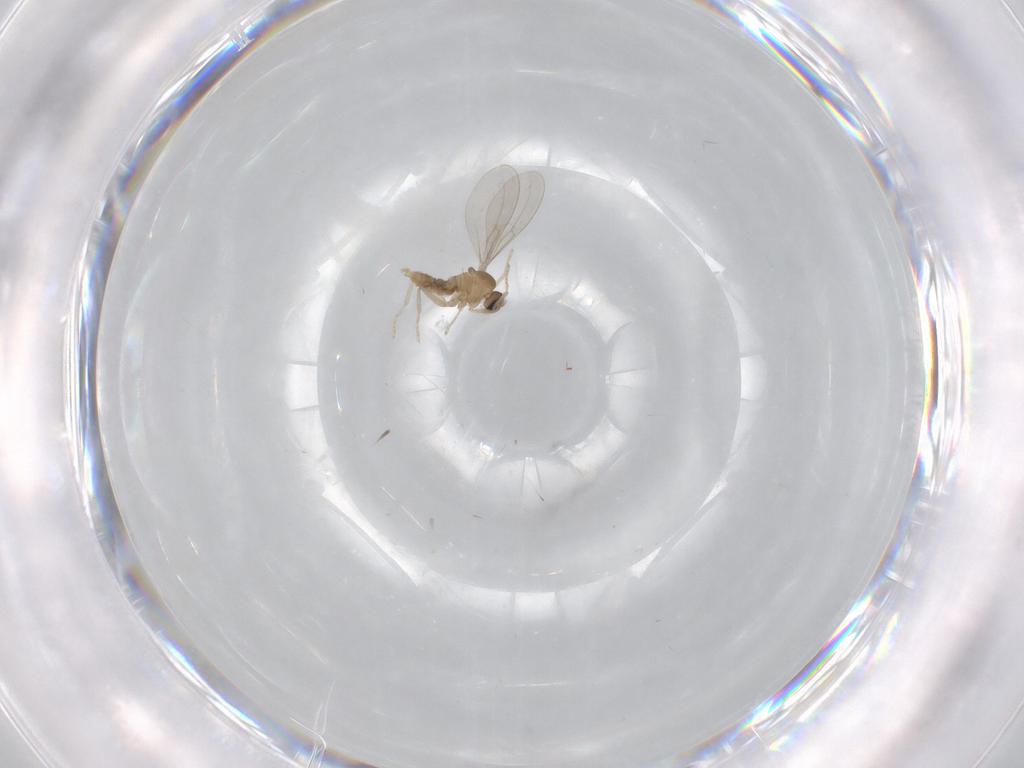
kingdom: Animalia
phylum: Arthropoda
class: Insecta
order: Diptera
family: Cecidomyiidae
